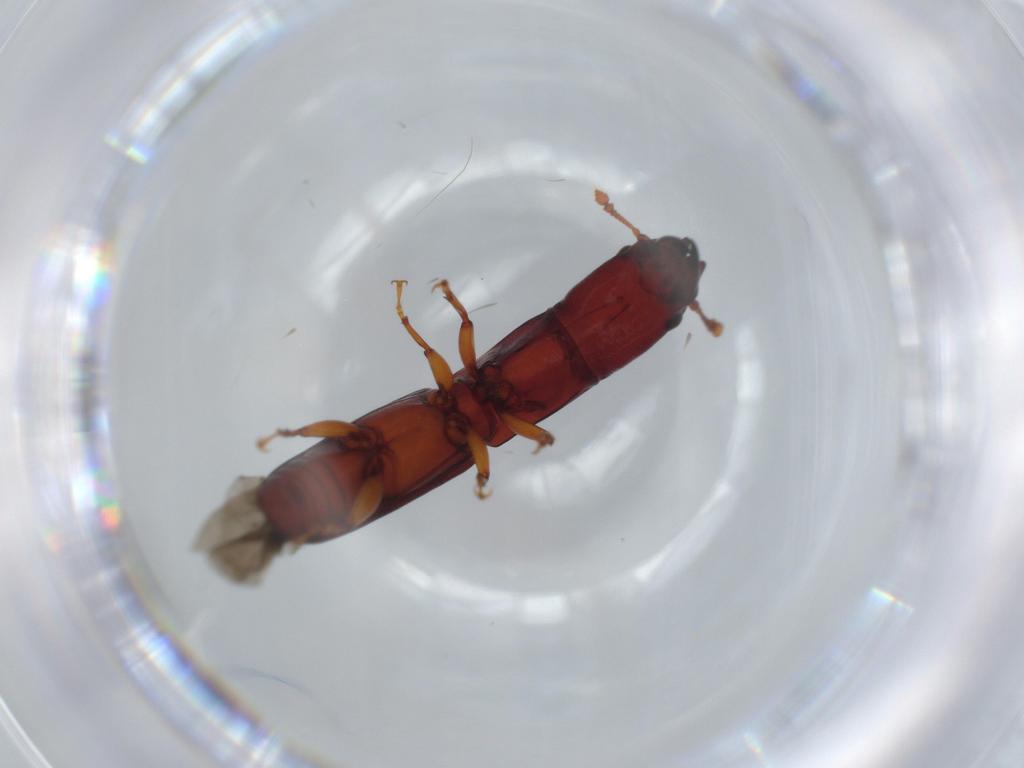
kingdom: Animalia
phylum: Arthropoda
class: Insecta
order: Coleoptera
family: Monotomidae
